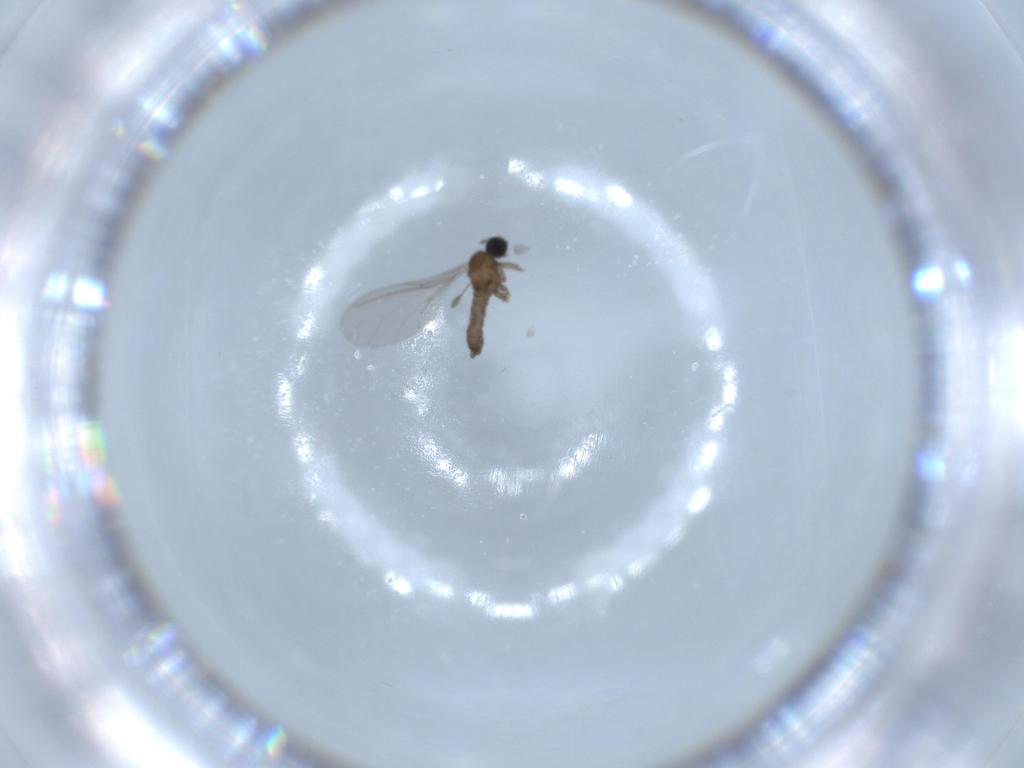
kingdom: Animalia
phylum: Arthropoda
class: Insecta
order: Diptera
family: Sciaridae
